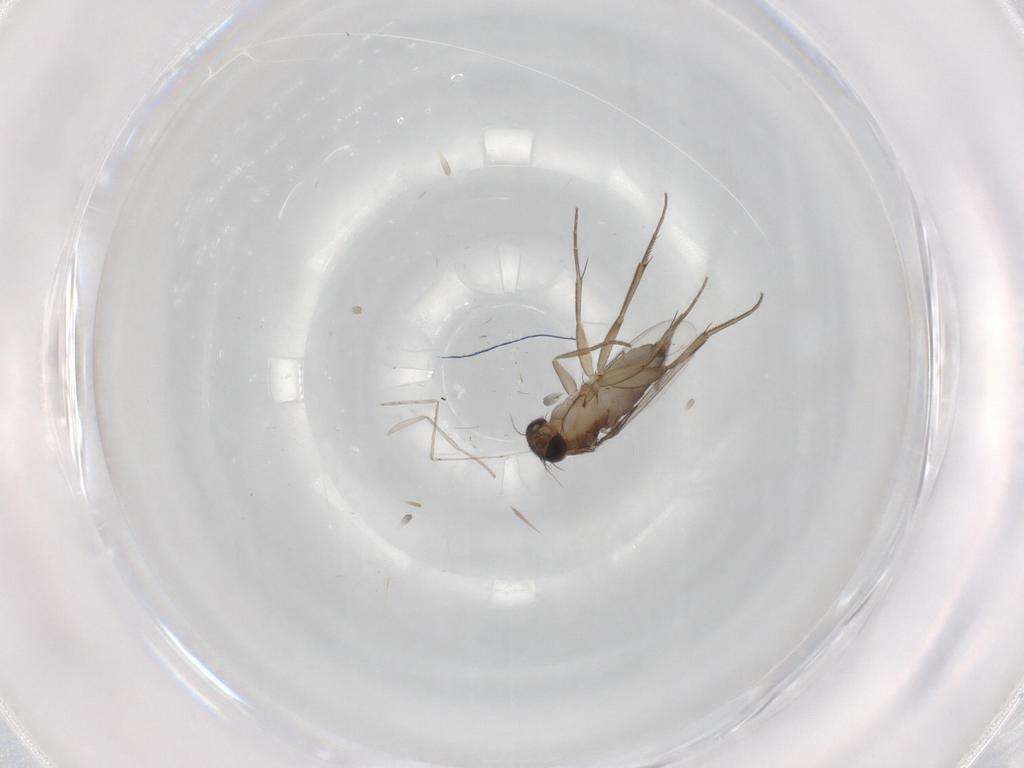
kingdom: Animalia
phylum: Arthropoda
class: Insecta
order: Diptera
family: Phoridae
